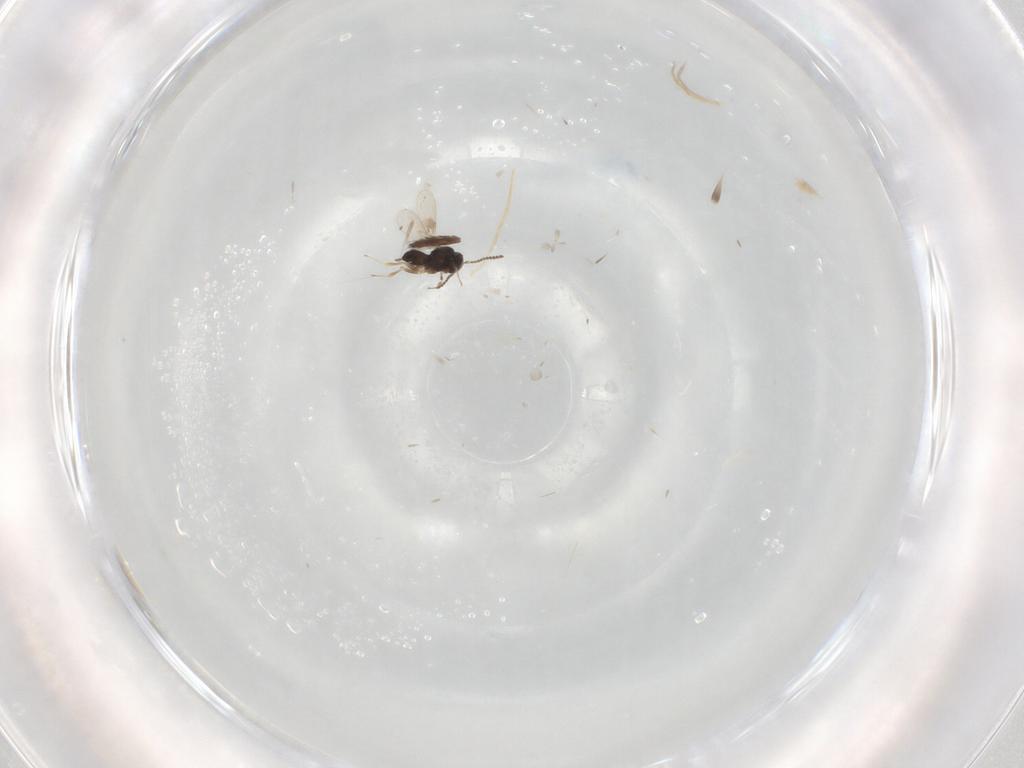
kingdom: Animalia
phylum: Arthropoda
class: Insecta
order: Hymenoptera
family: Scelionidae
